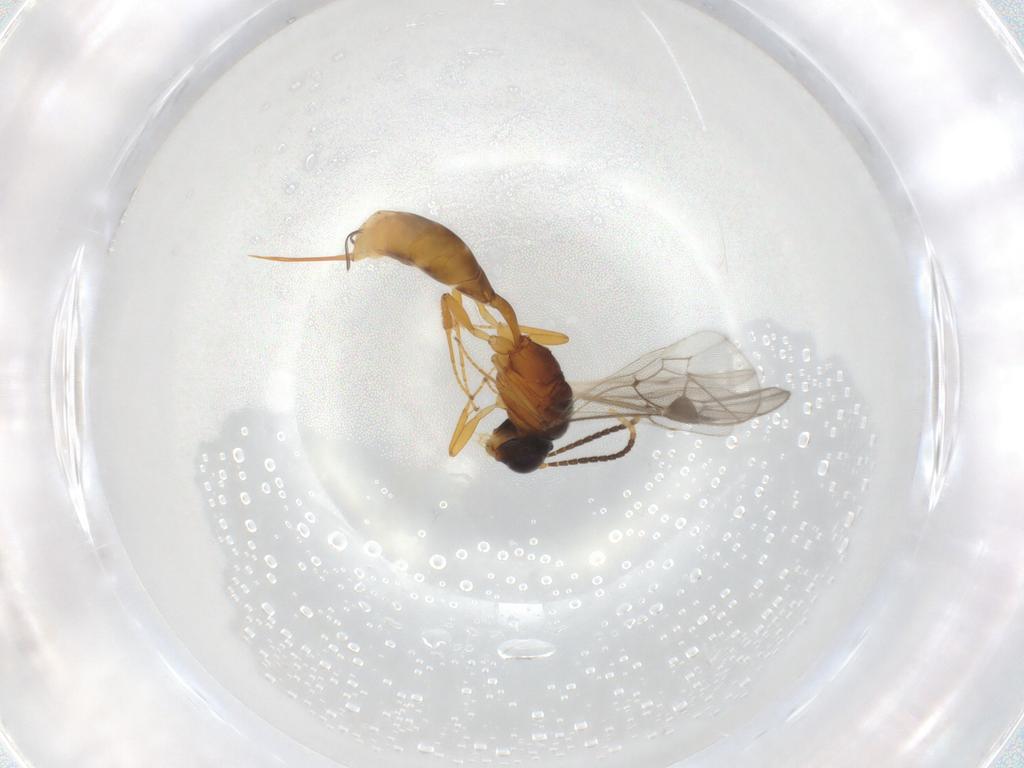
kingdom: Animalia
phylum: Arthropoda
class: Insecta
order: Hymenoptera
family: Ichneumonidae
